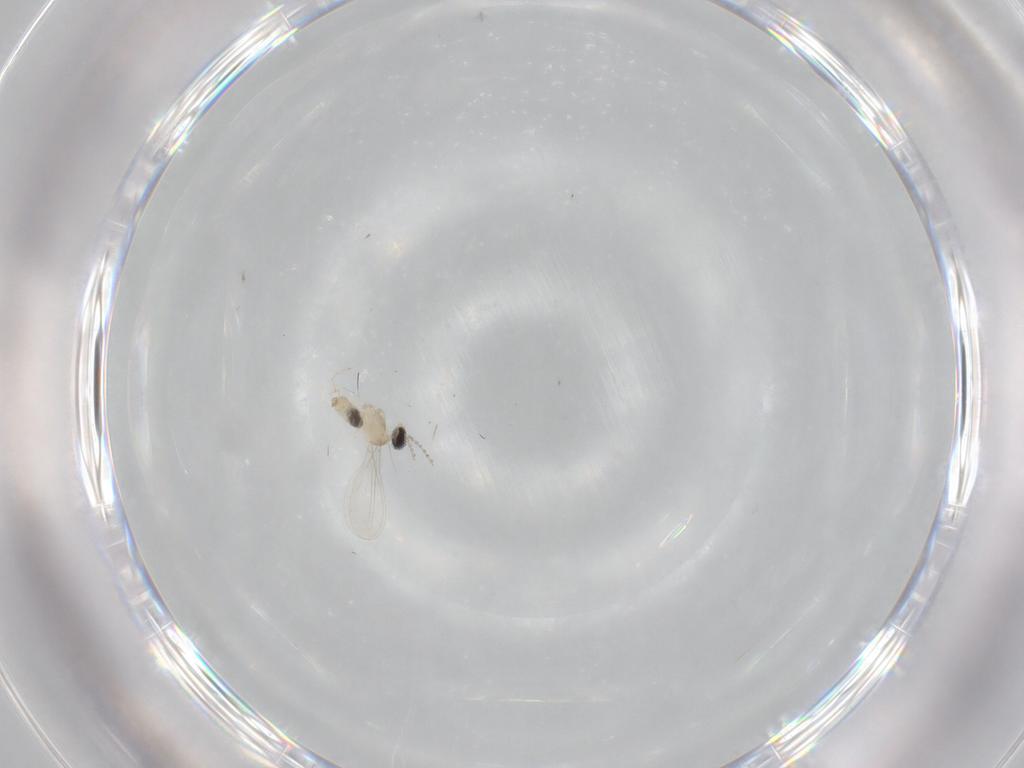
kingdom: Animalia
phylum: Arthropoda
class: Insecta
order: Diptera
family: Cecidomyiidae
